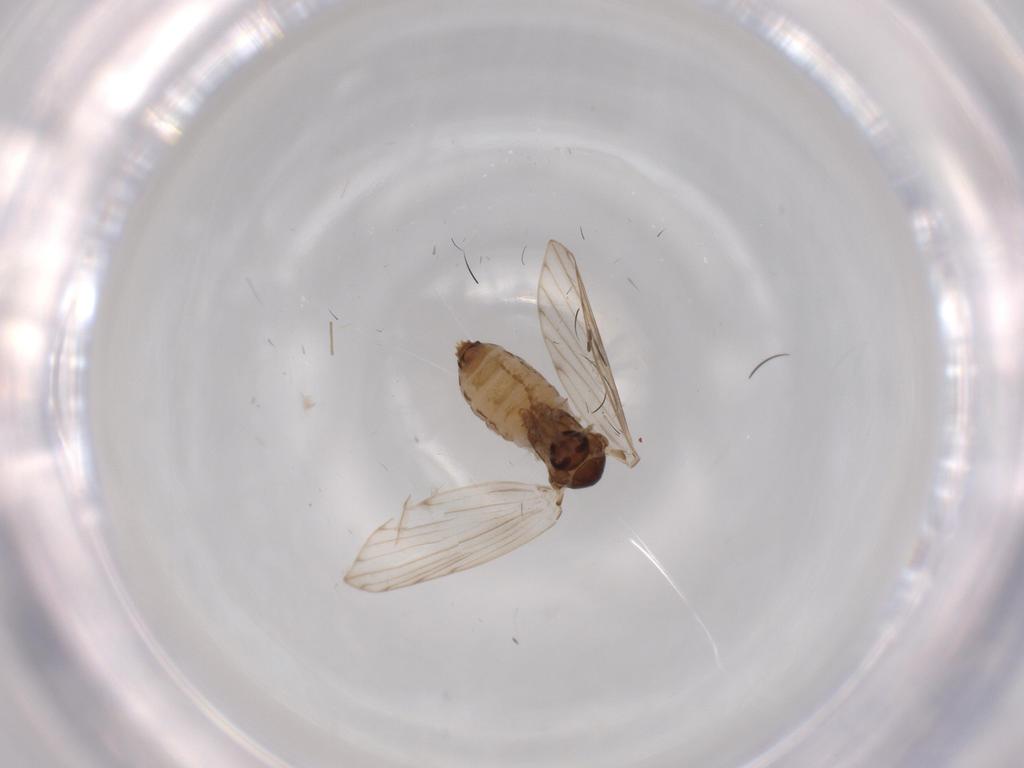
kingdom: Animalia
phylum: Arthropoda
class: Insecta
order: Diptera
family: Psychodidae
